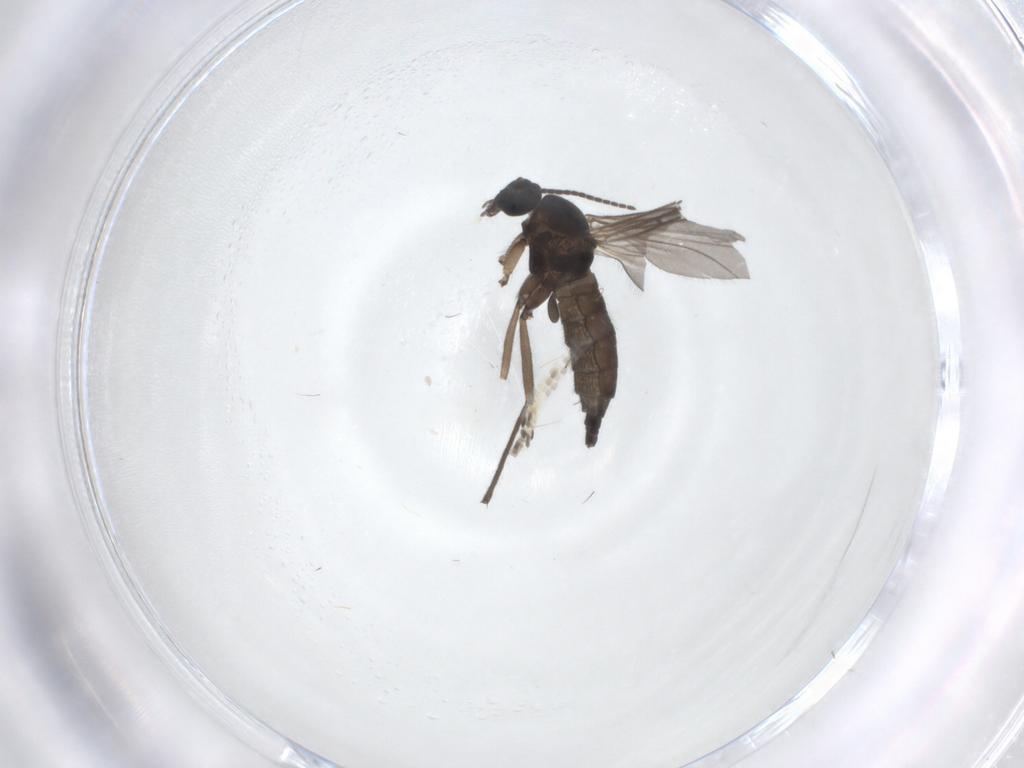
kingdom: Animalia
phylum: Arthropoda
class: Insecta
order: Diptera
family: Sciaridae
